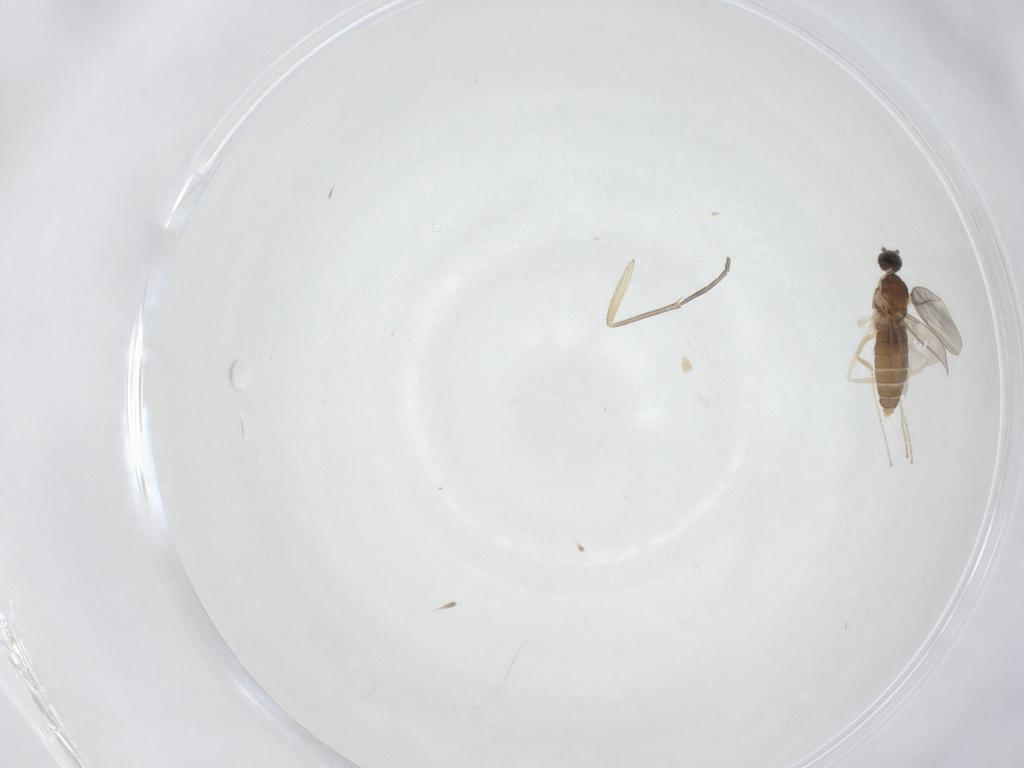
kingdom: Animalia
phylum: Arthropoda
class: Insecta
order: Diptera
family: Cecidomyiidae
